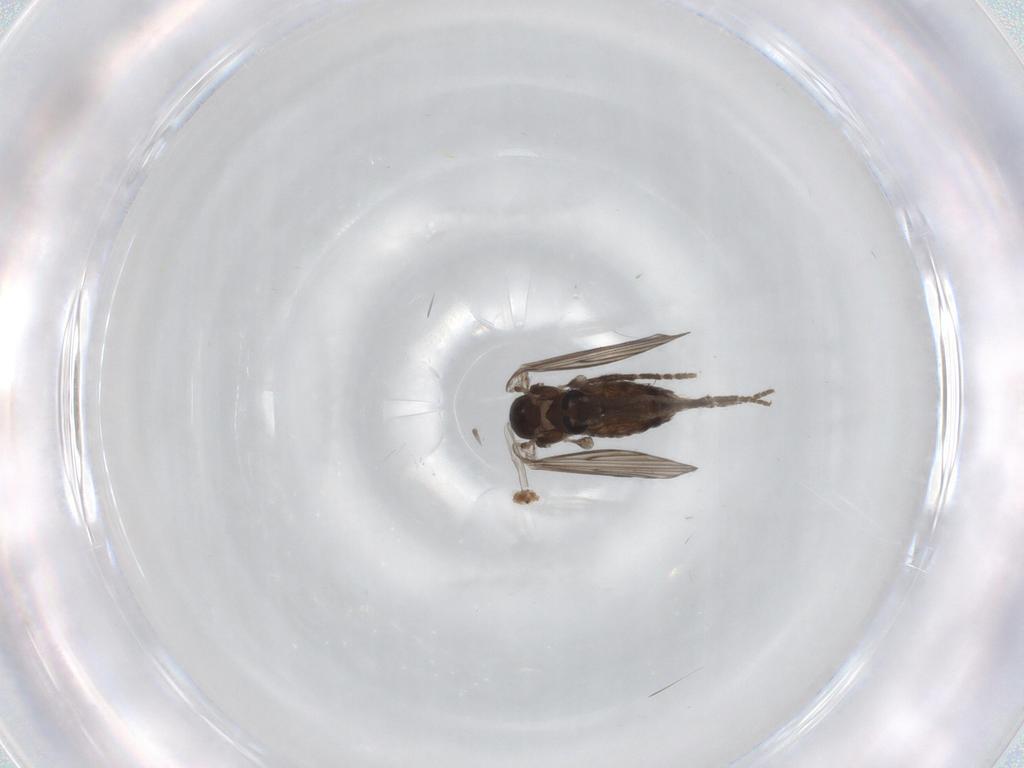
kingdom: Animalia
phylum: Arthropoda
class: Insecta
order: Diptera
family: Psychodidae
